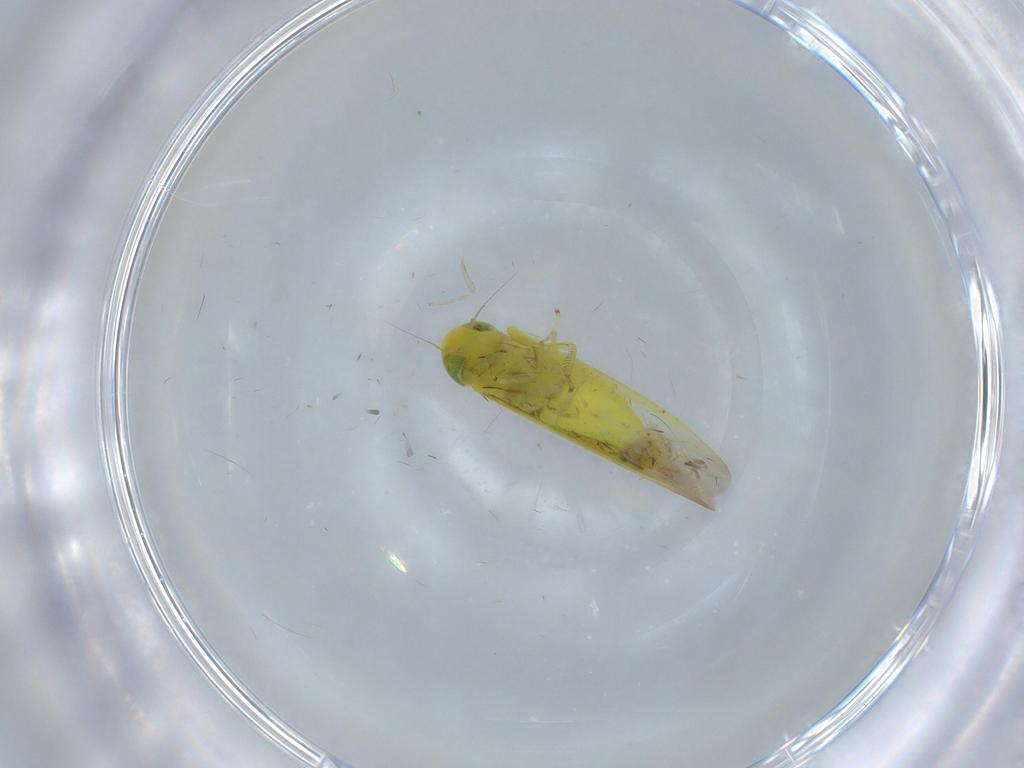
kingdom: Animalia
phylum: Arthropoda
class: Insecta
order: Hemiptera
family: Cicadellidae
